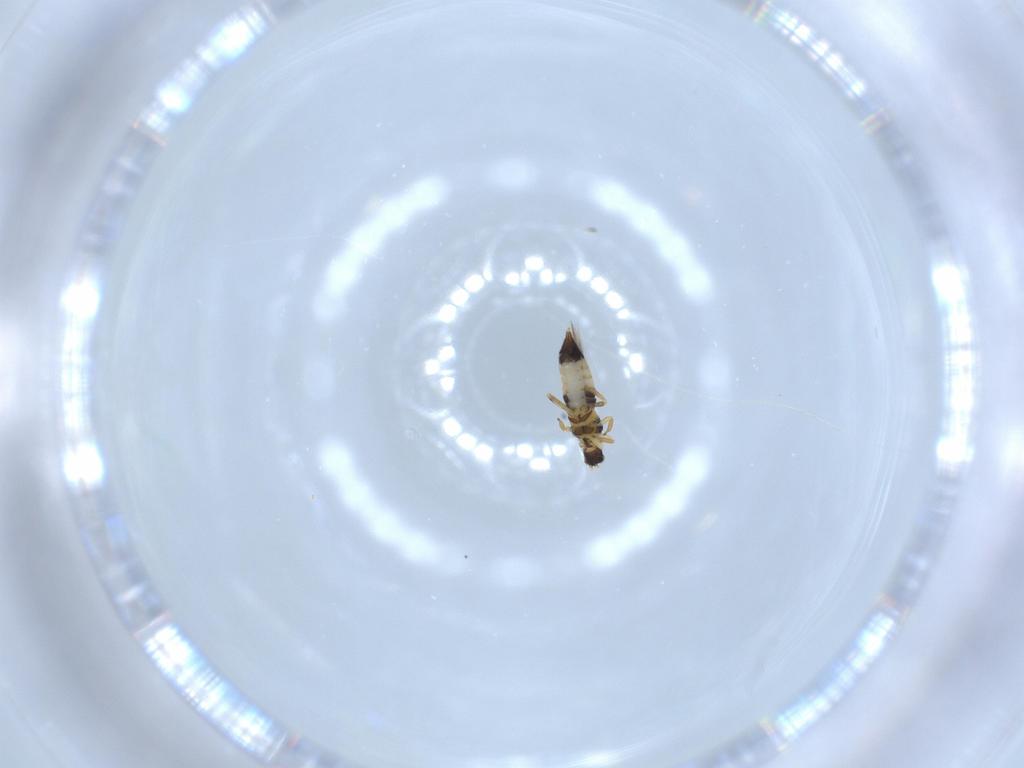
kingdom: Animalia
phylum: Arthropoda
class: Insecta
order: Thysanoptera
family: Thripidae
